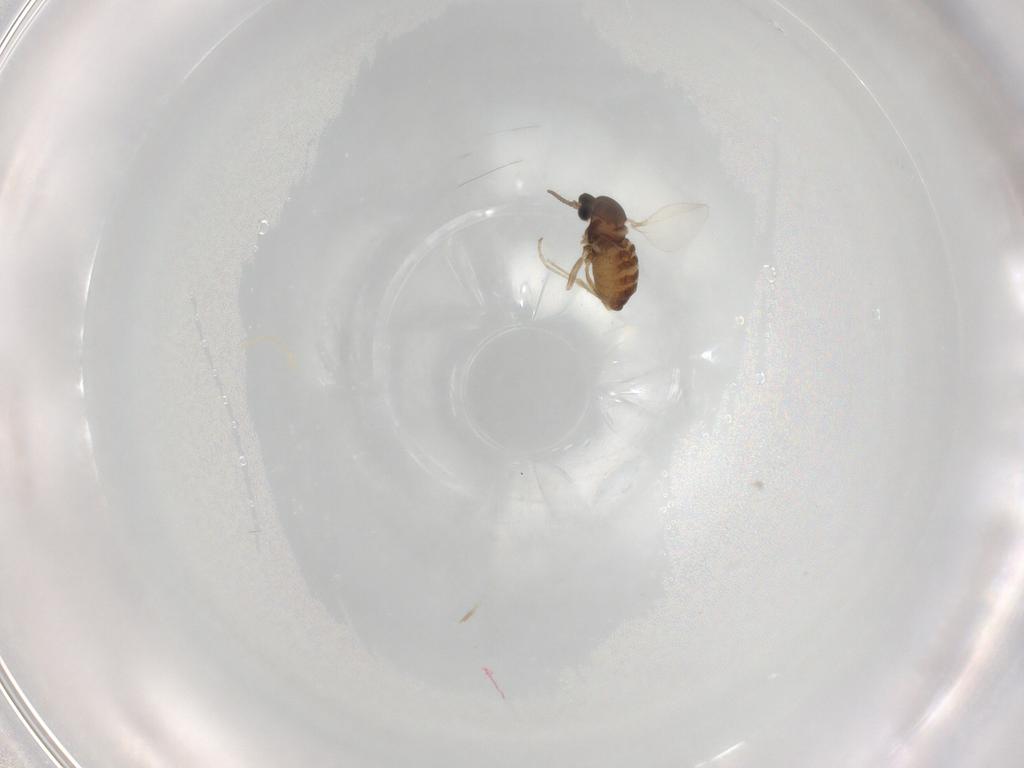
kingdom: Animalia
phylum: Arthropoda
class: Insecta
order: Diptera
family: Cecidomyiidae
